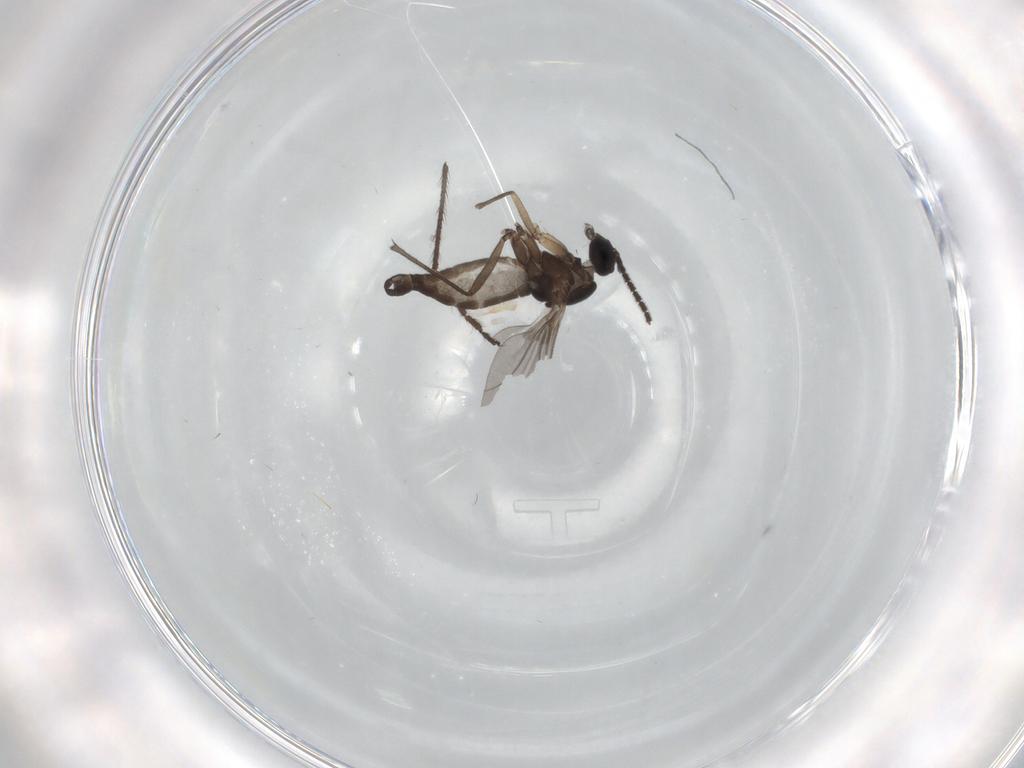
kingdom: Animalia
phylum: Arthropoda
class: Insecta
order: Diptera
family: Sciaridae
